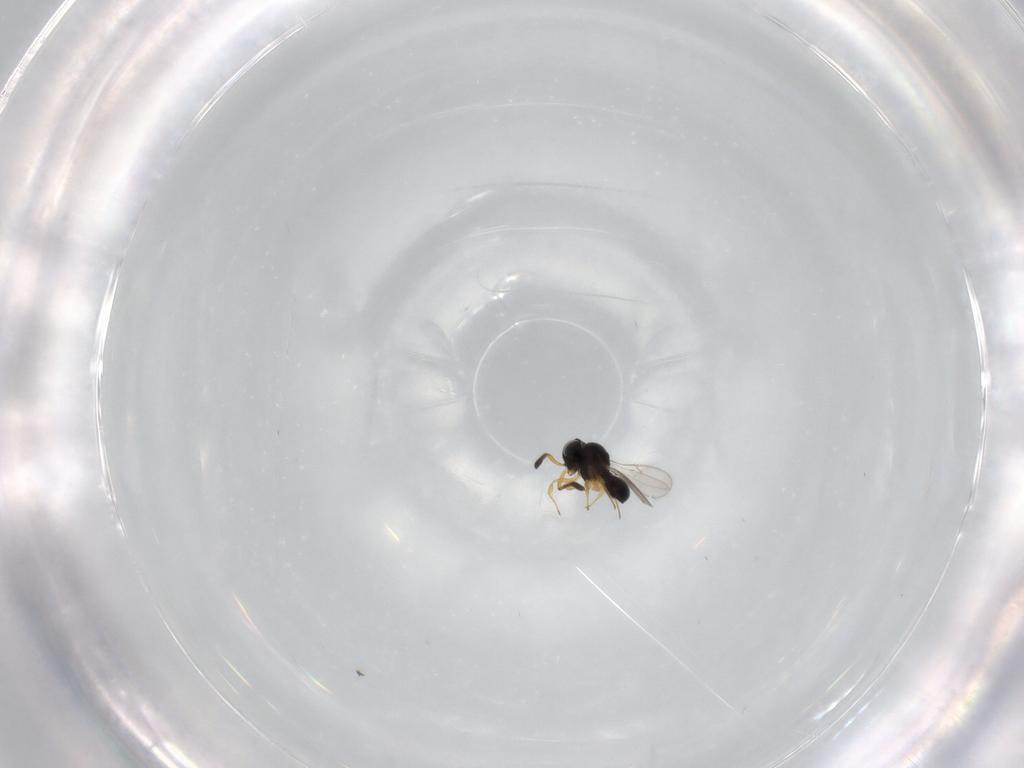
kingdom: Animalia
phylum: Arthropoda
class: Insecta
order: Hymenoptera
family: Scelionidae
